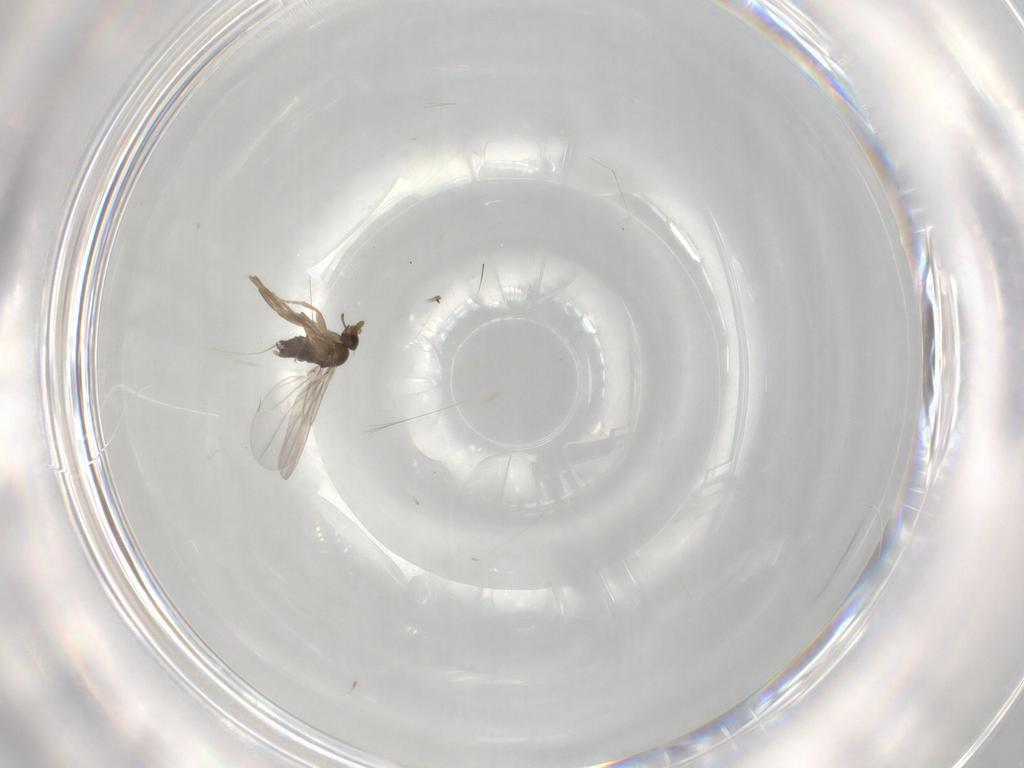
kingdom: Animalia
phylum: Arthropoda
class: Insecta
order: Diptera
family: Phoridae
